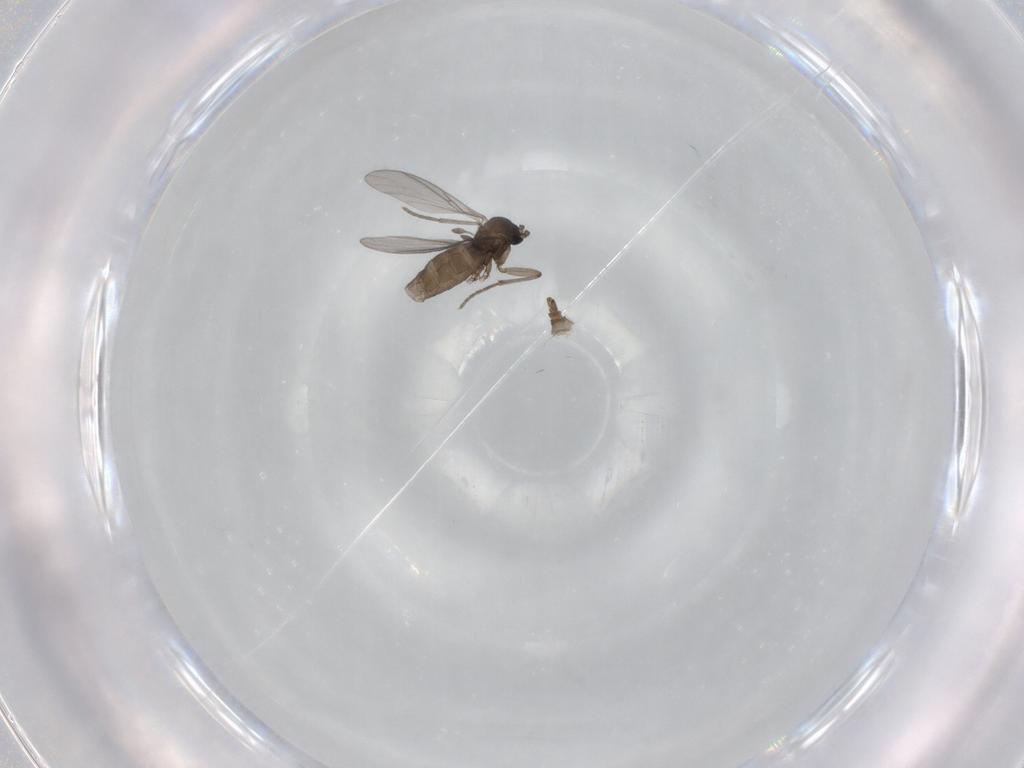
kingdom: Animalia
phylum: Arthropoda
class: Insecta
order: Diptera
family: Sciaridae
